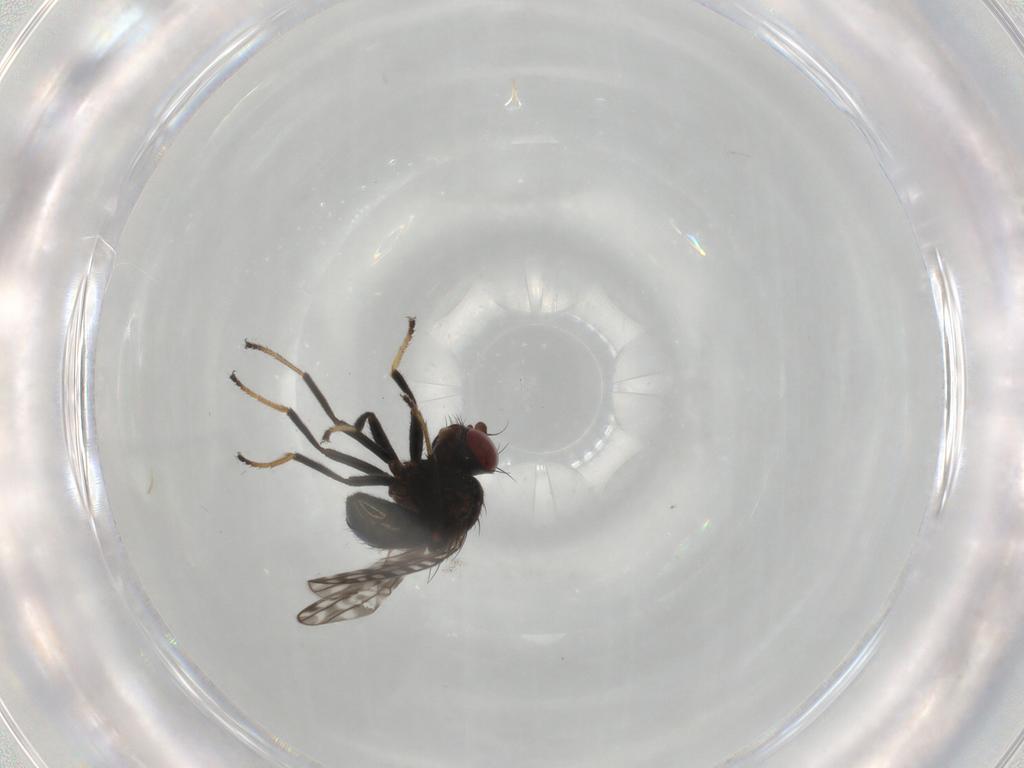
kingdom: Animalia
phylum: Arthropoda
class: Insecta
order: Diptera
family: Ephydridae
